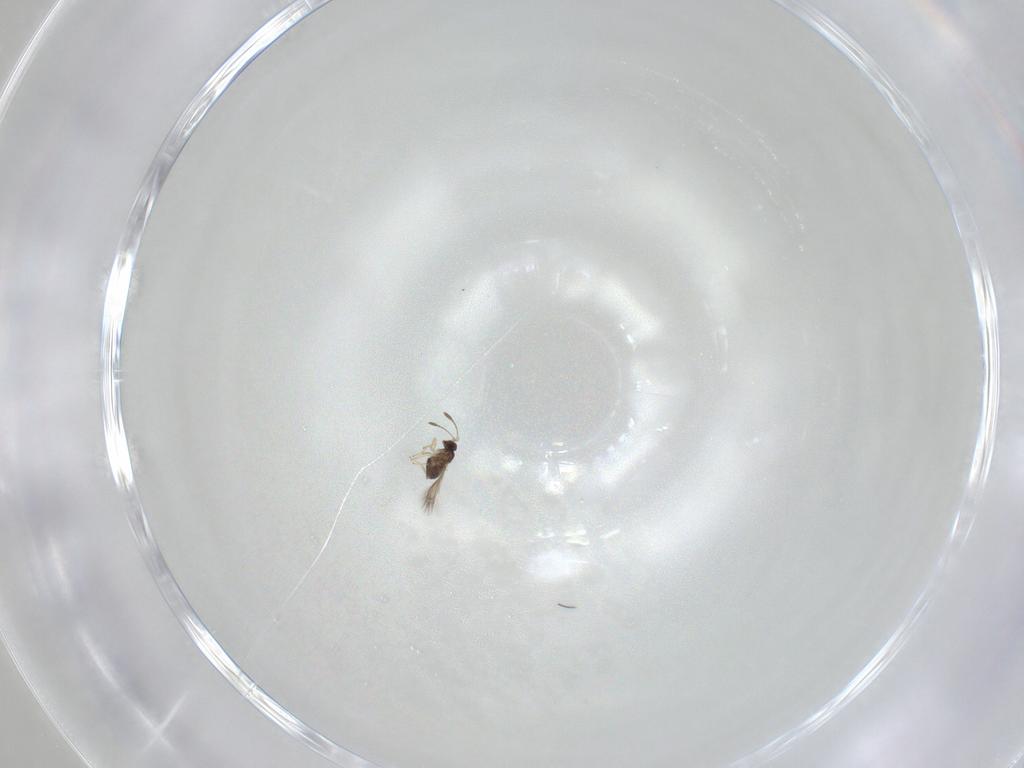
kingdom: Animalia
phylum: Arthropoda
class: Insecta
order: Hymenoptera
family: Mymaridae
